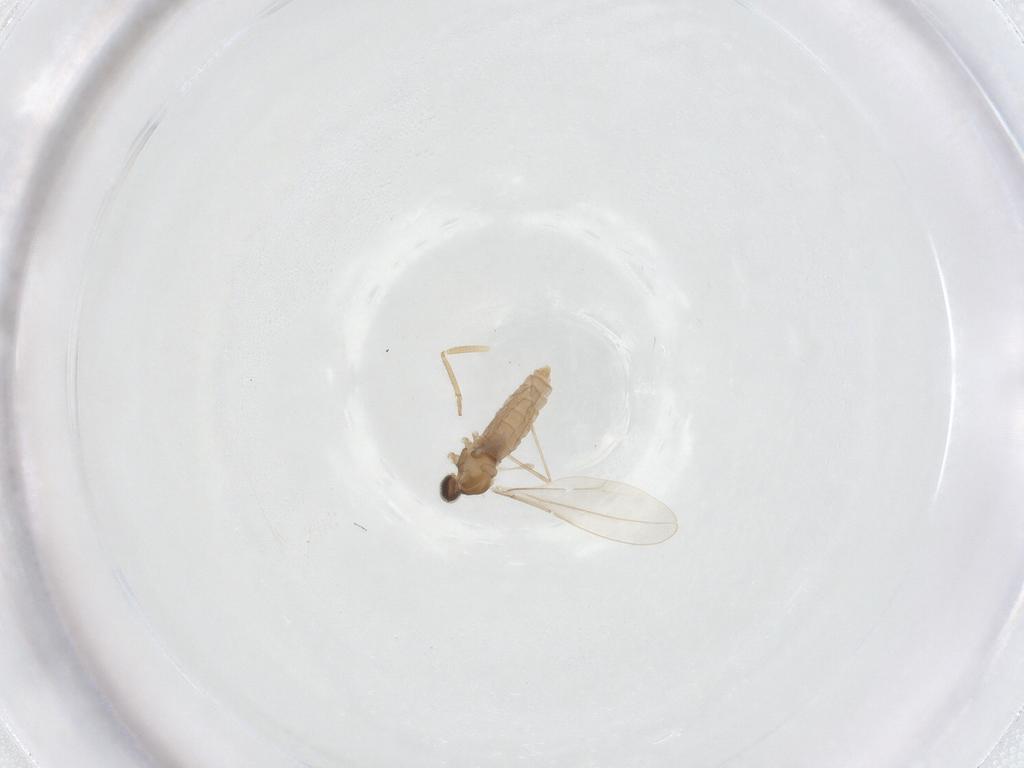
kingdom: Animalia
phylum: Arthropoda
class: Insecta
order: Diptera
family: Cecidomyiidae
